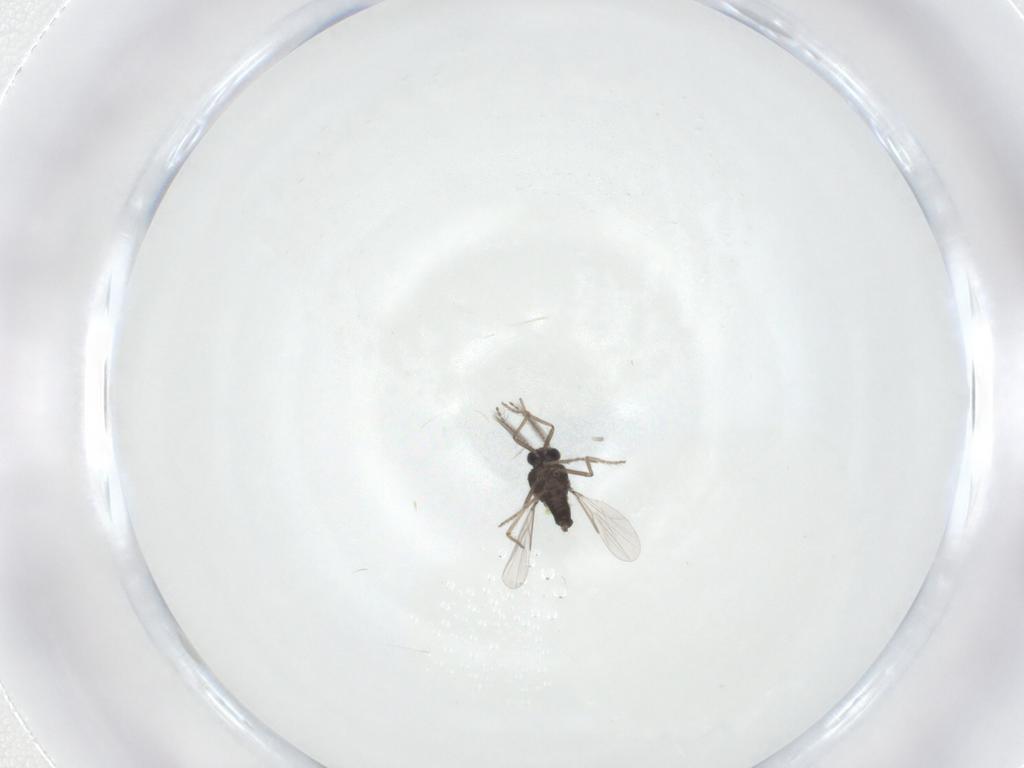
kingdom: Animalia
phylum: Arthropoda
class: Insecta
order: Diptera
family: Ceratopogonidae
